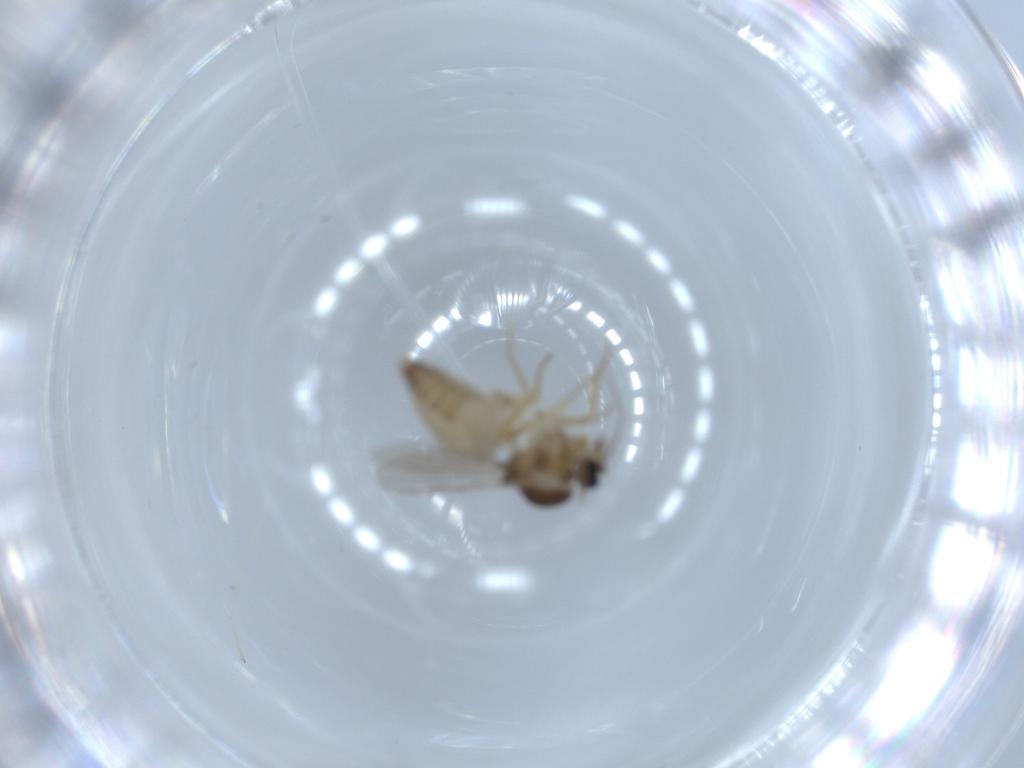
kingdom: Animalia
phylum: Arthropoda
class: Insecta
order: Diptera
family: Ceratopogonidae
